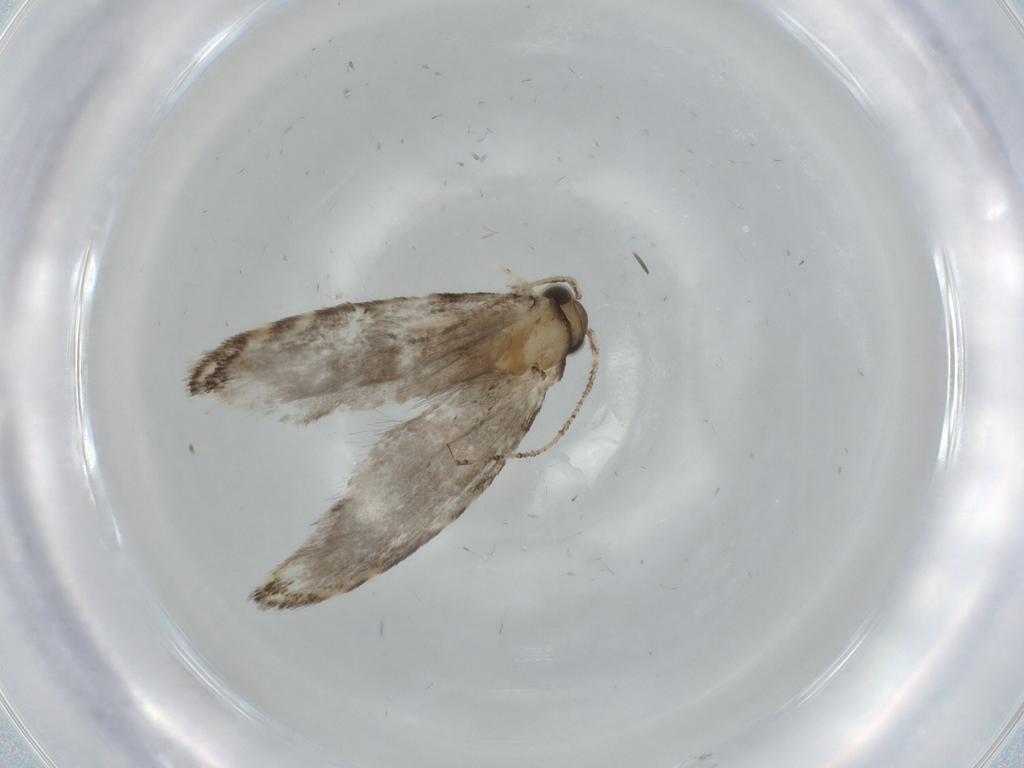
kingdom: Animalia
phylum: Arthropoda
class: Insecta
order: Lepidoptera
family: Tineidae
